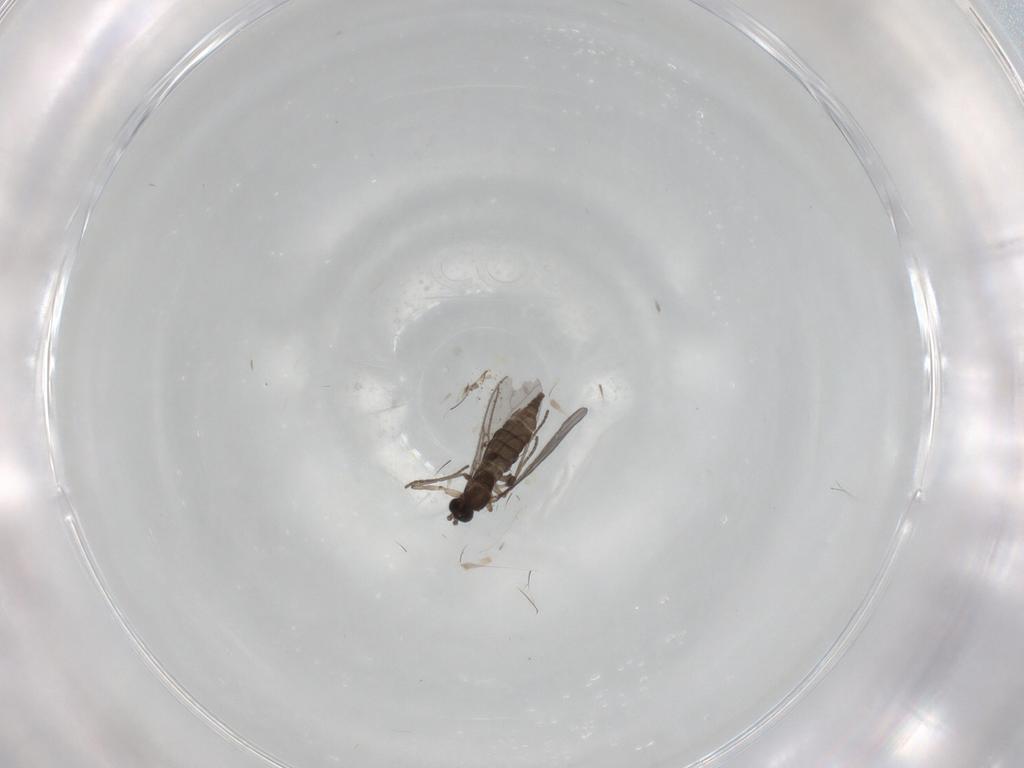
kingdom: Animalia
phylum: Arthropoda
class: Insecta
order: Diptera
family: Sciaridae
